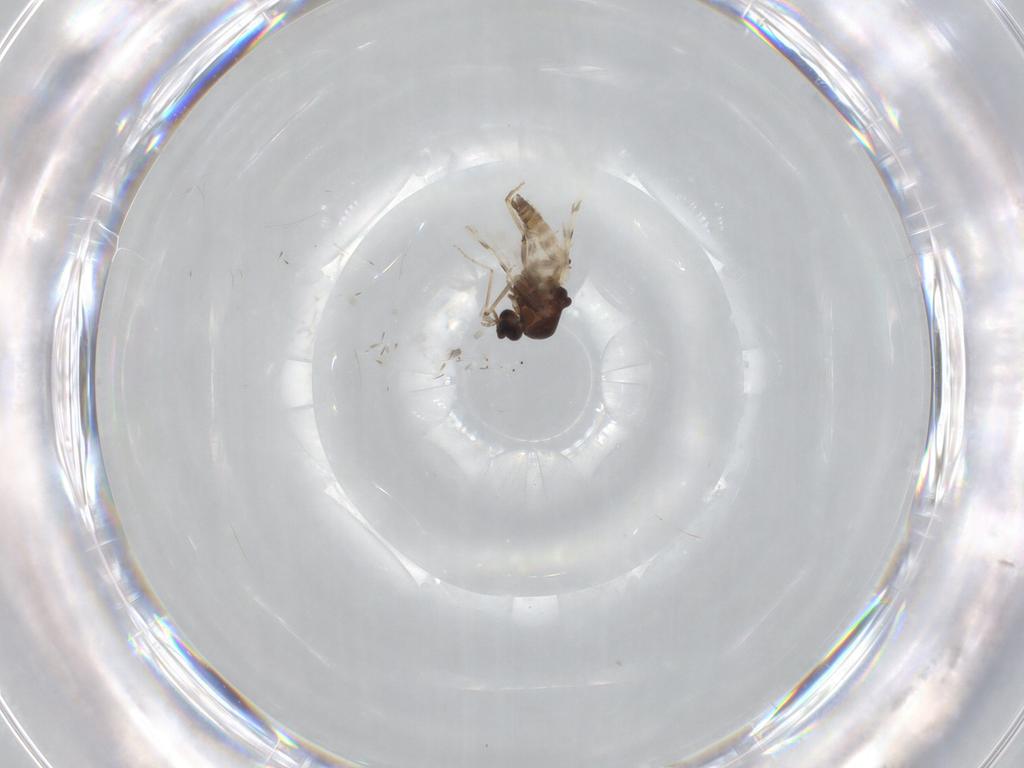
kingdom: Animalia
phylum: Arthropoda
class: Insecta
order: Diptera
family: Ceratopogonidae
